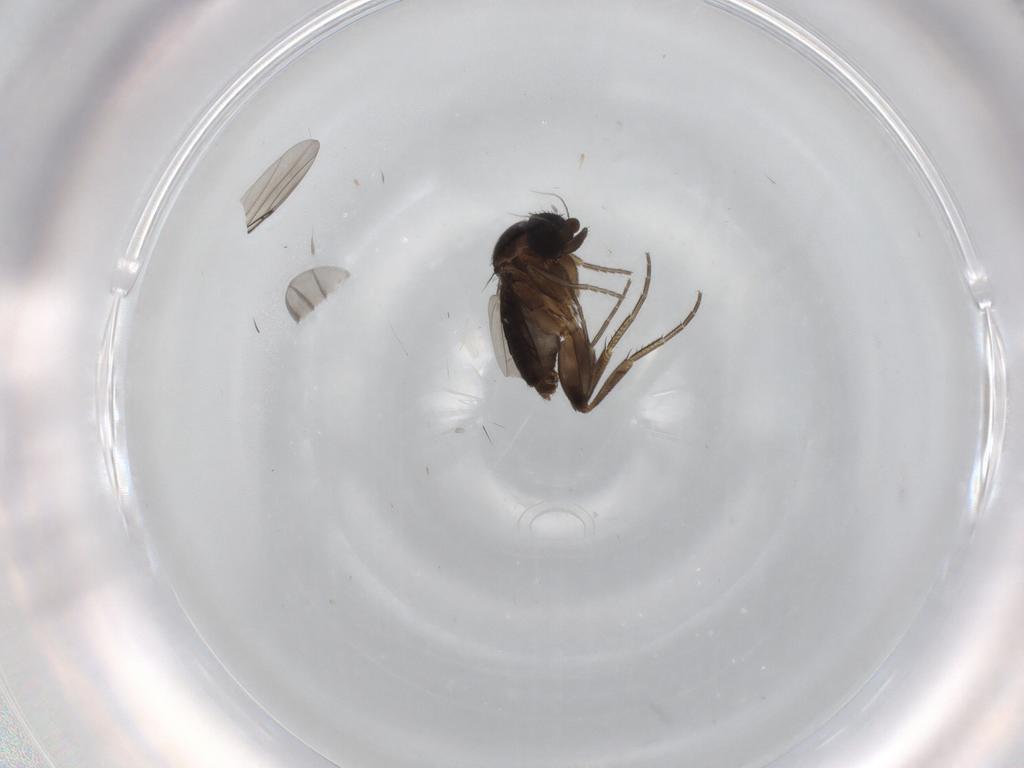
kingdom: Animalia
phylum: Arthropoda
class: Insecta
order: Diptera
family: Phoridae
